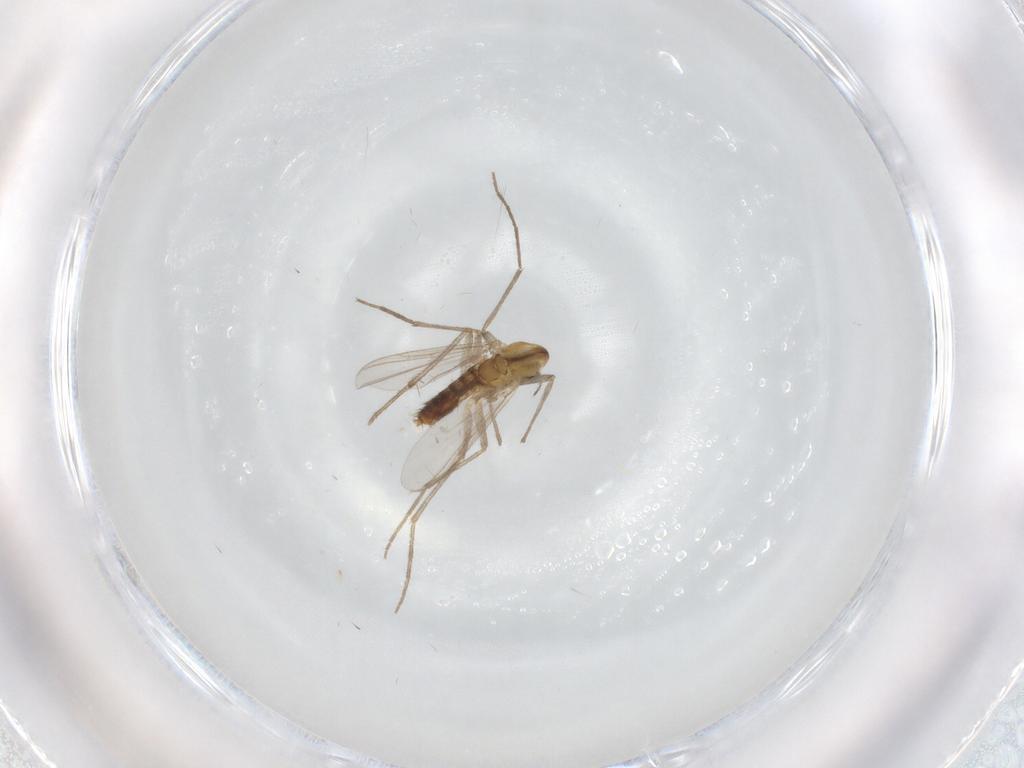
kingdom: Animalia
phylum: Arthropoda
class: Insecta
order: Diptera
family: Chironomidae
